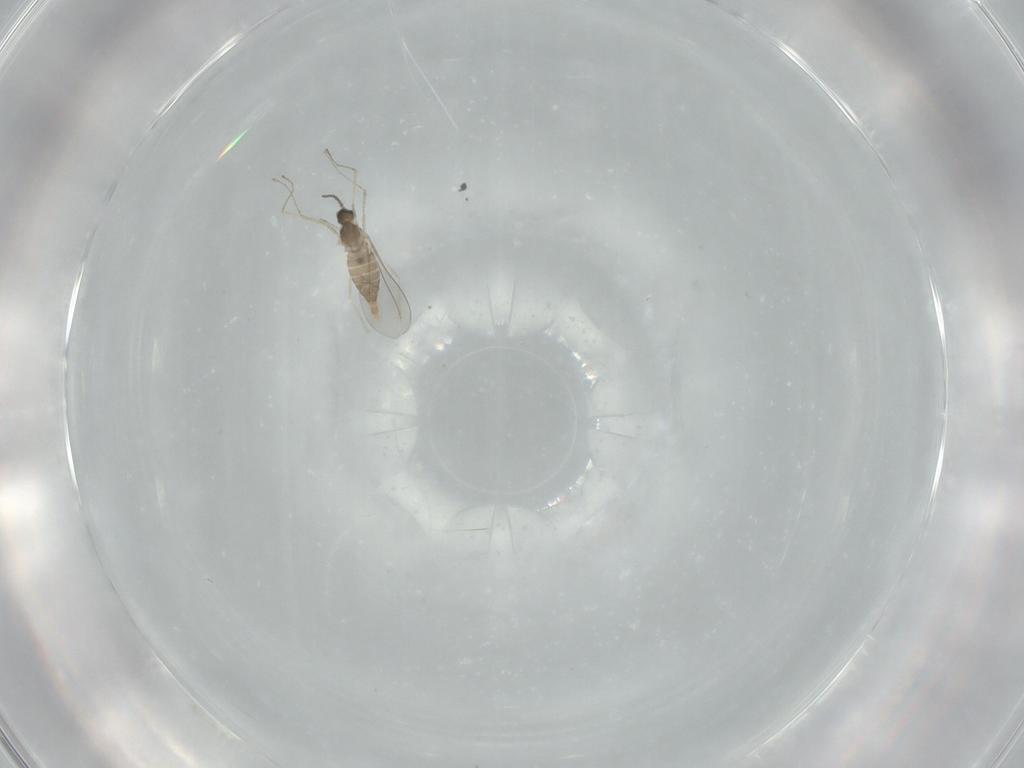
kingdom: Animalia
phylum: Arthropoda
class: Insecta
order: Diptera
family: Cecidomyiidae
